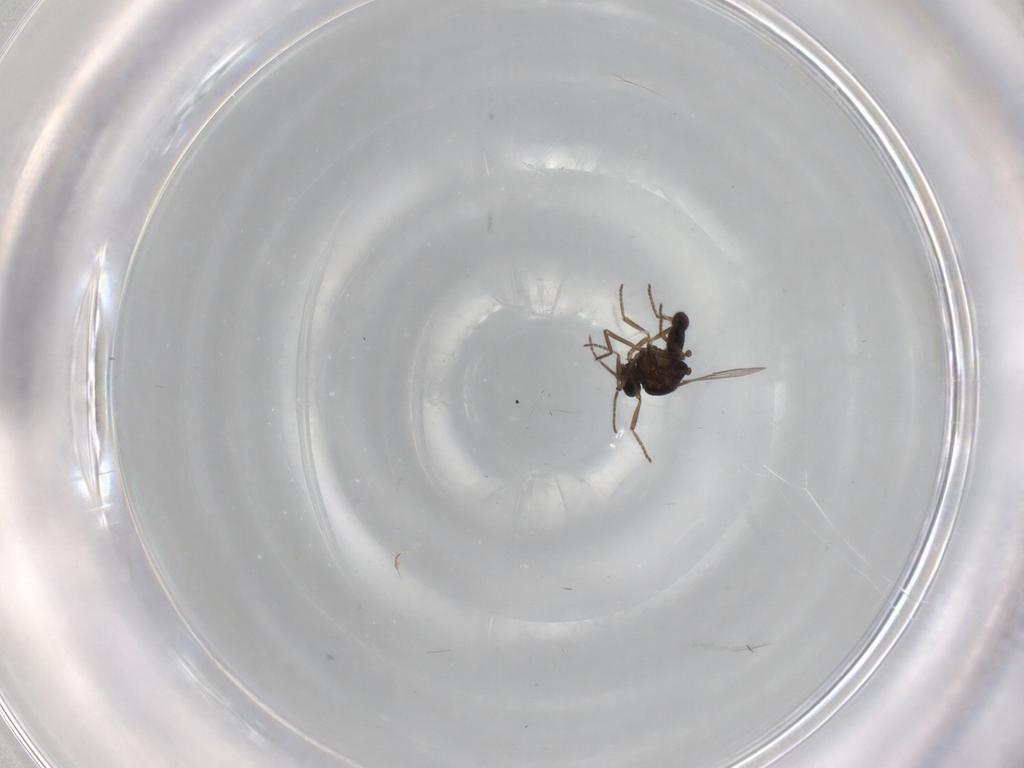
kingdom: Animalia
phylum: Arthropoda
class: Insecta
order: Diptera
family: Ceratopogonidae
